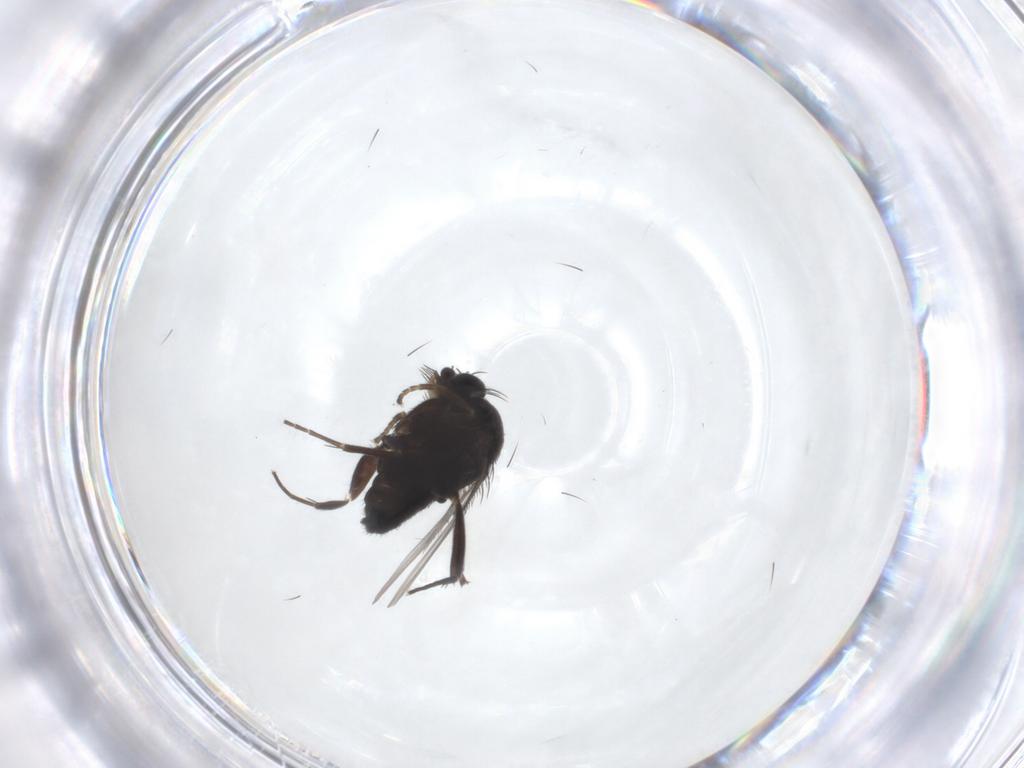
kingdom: Animalia
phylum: Arthropoda
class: Insecta
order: Diptera
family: Phoridae
